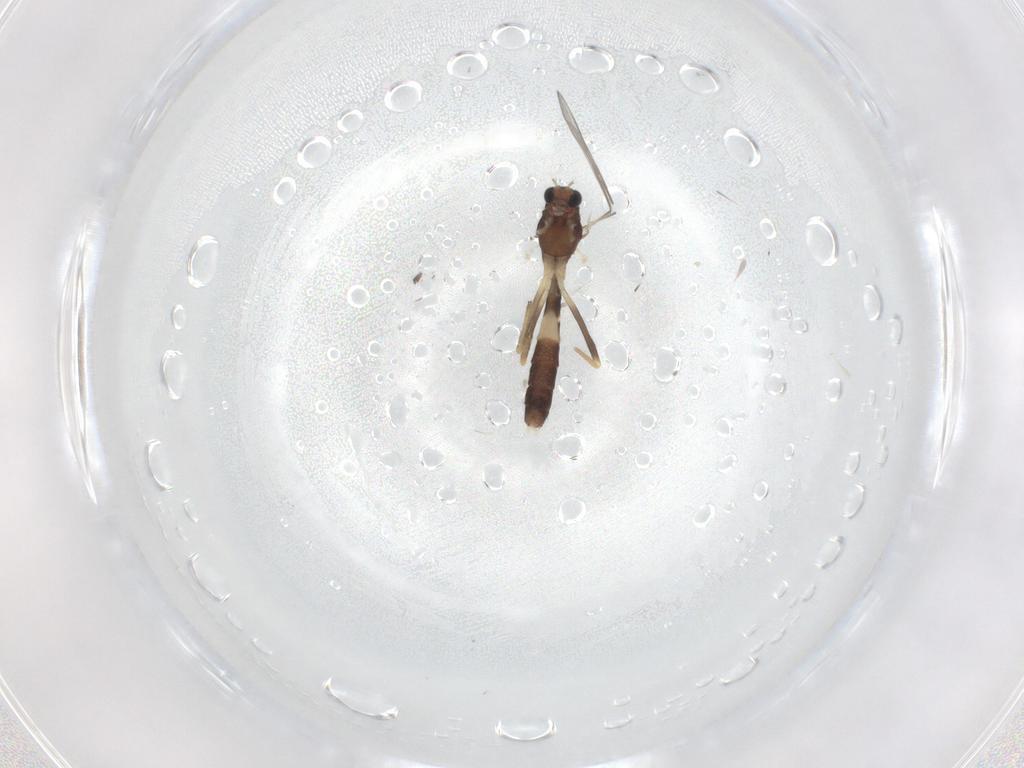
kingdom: Animalia
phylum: Arthropoda
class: Insecta
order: Diptera
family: Chironomidae
